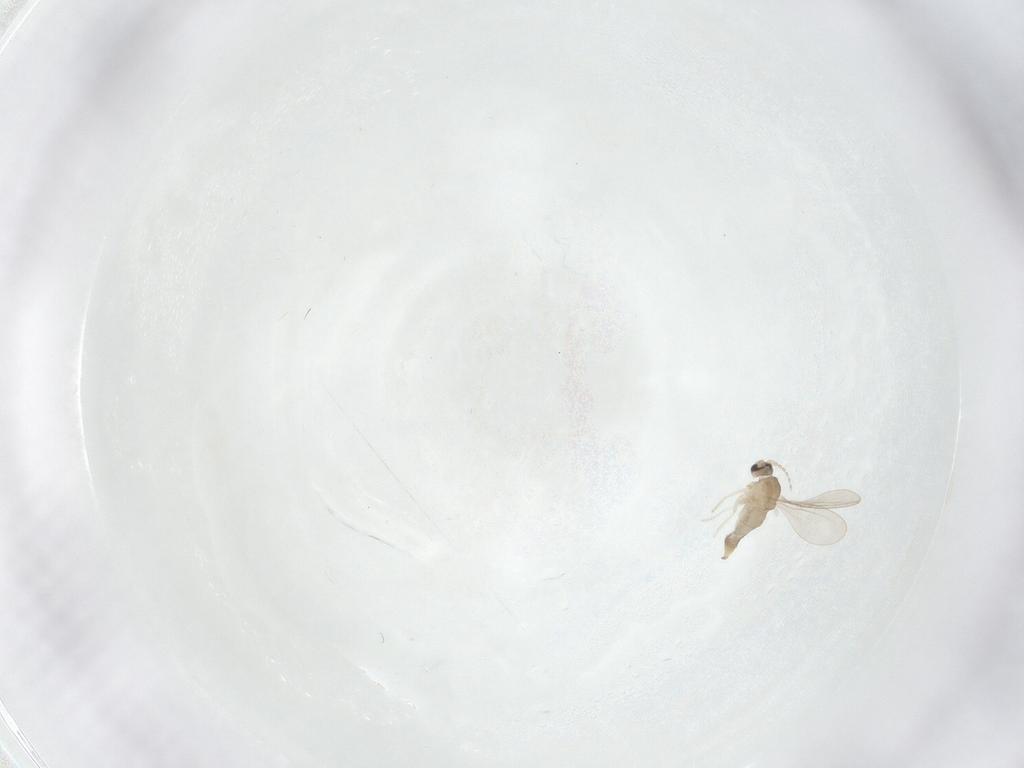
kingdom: Animalia
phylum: Arthropoda
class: Insecta
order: Diptera
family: Cecidomyiidae
